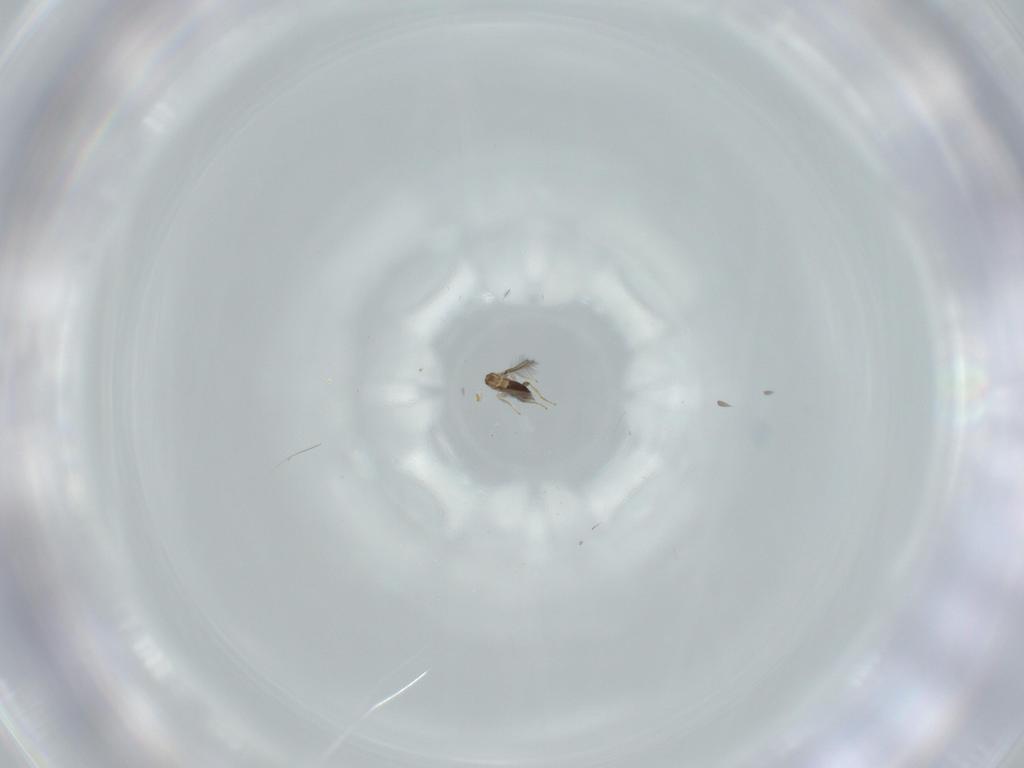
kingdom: Animalia
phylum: Arthropoda
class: Insecta
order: Hymenoptera
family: Mymaridae
